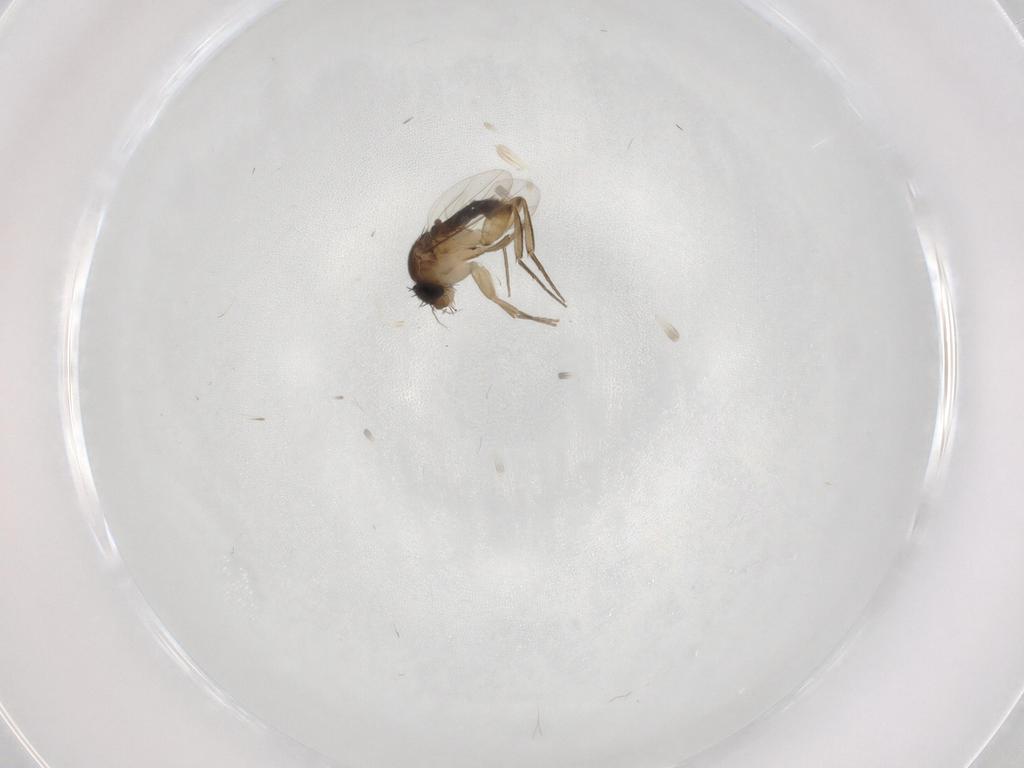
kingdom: Animalia
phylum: Arthropoda
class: Insecta
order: Diptera
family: Phoridae
